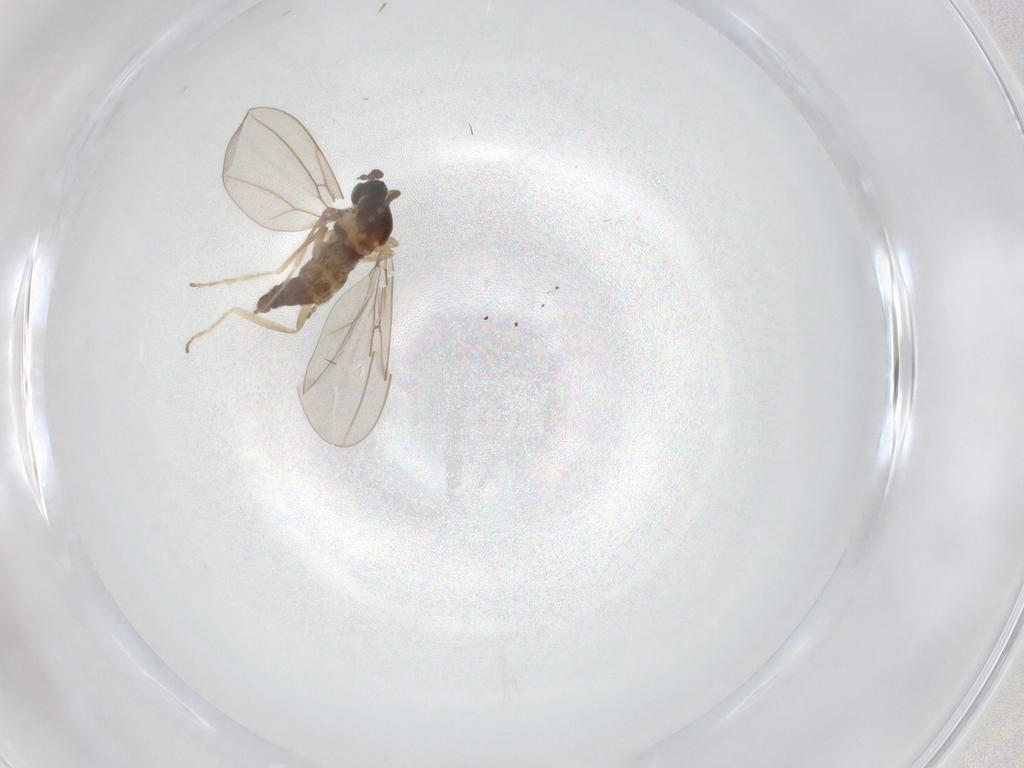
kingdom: Animalia
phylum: Arthropoda
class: Insecta
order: Diptera
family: Cecidomyiidae
